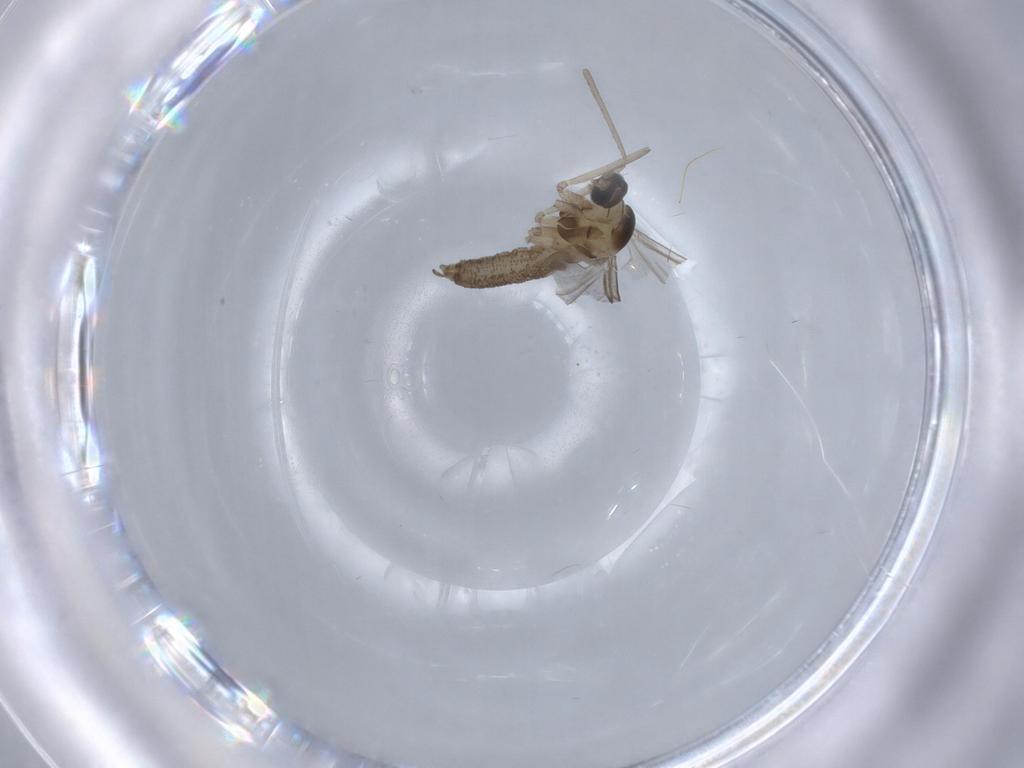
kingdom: Animalia
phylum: Arthropoda
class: Insecta
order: Diptera
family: Cecidomyiidae
